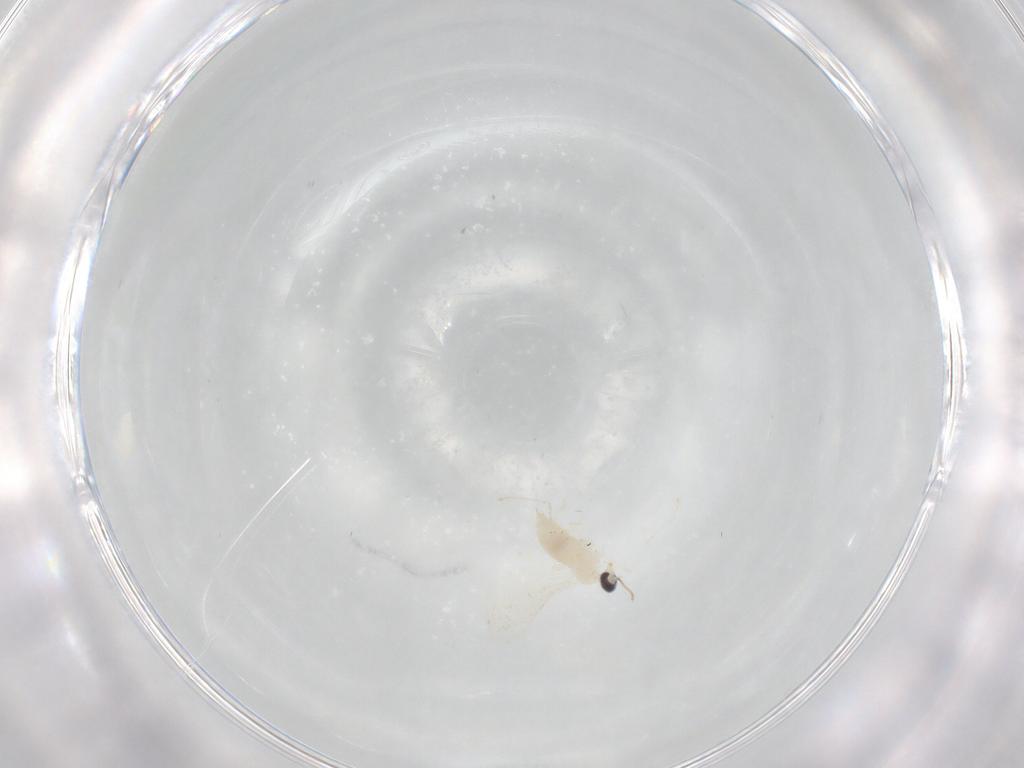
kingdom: Animalia
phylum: Arthropoda
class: Insecta
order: Diptera
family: Cecidomyiidae
